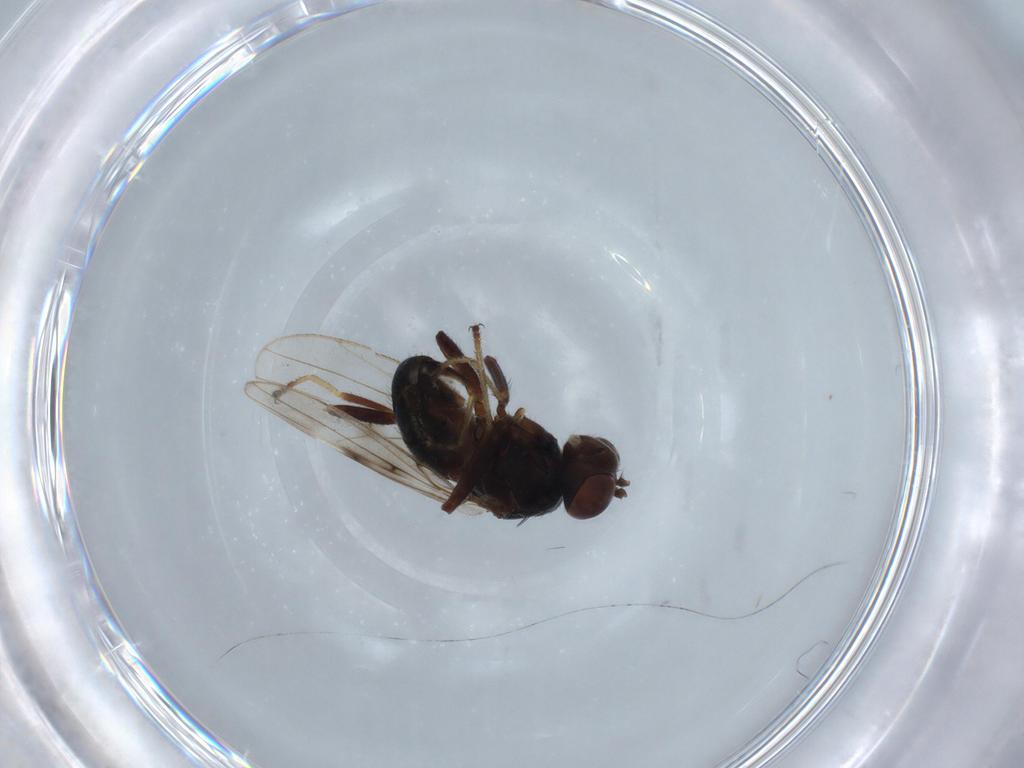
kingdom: Animalia
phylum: Arthropoda
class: Insecta
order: Diptera
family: Ephydridae
